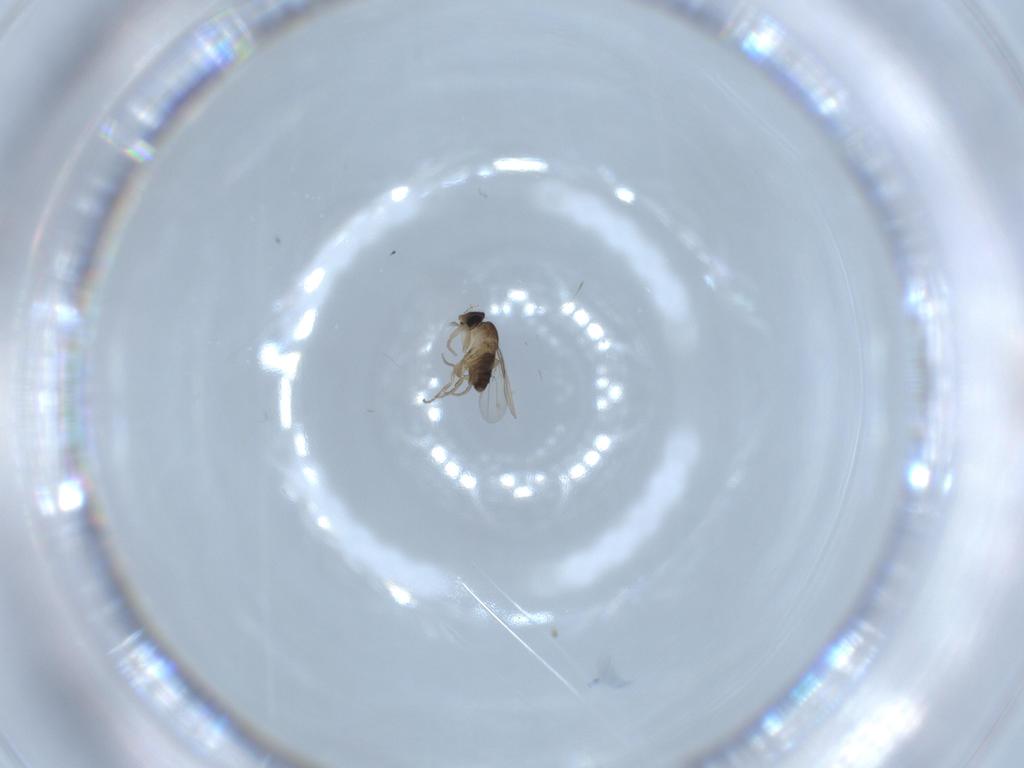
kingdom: Animalia
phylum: Arthropoda
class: Insecta
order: Diptera
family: Phoridae
